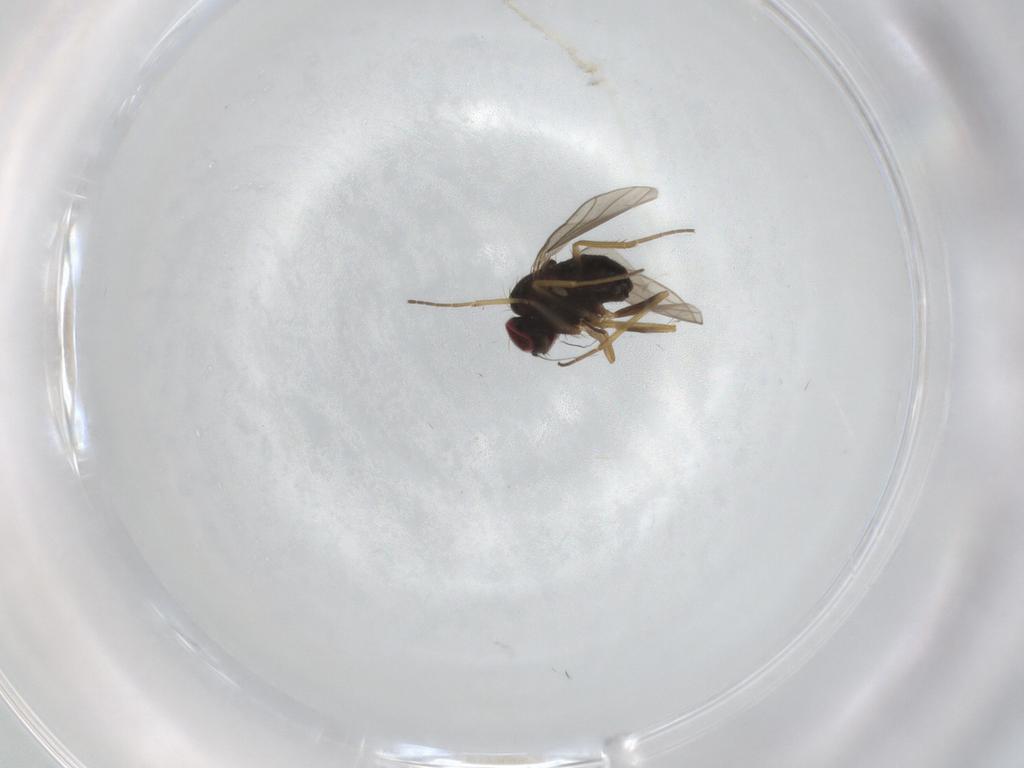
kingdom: Animalia
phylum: Arthropoda
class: Insecta
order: Diptera
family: Cecidomyiidae
